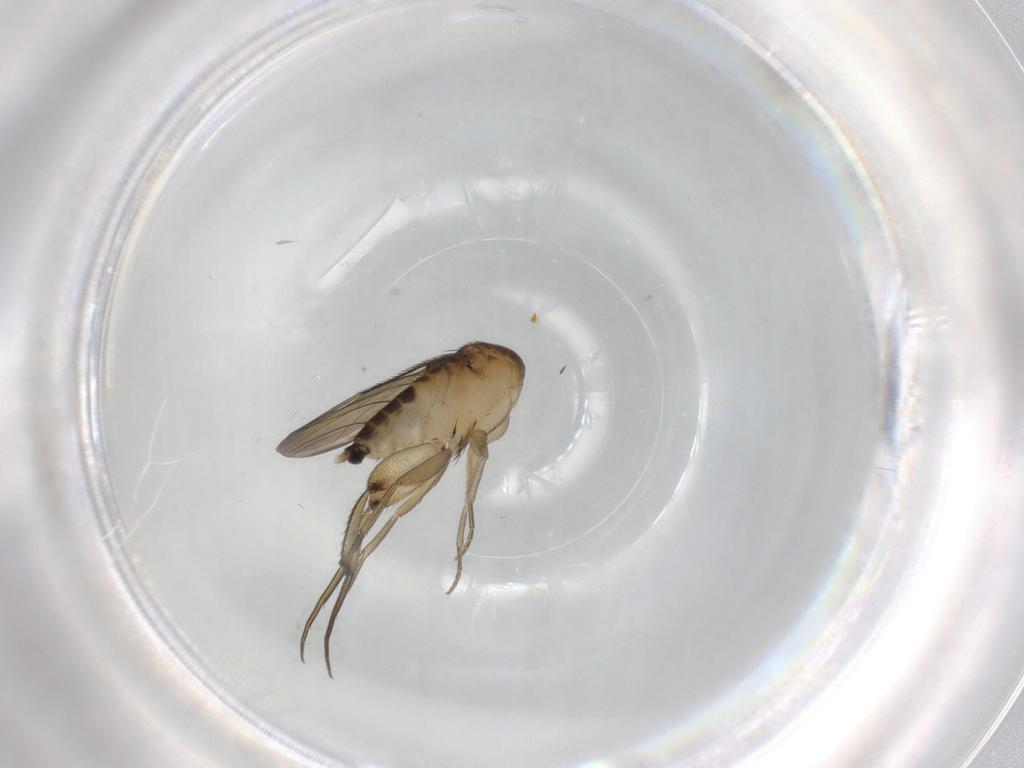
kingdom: Animalia
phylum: Arthropoda
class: Insecta
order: Diptera
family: Phoridae
